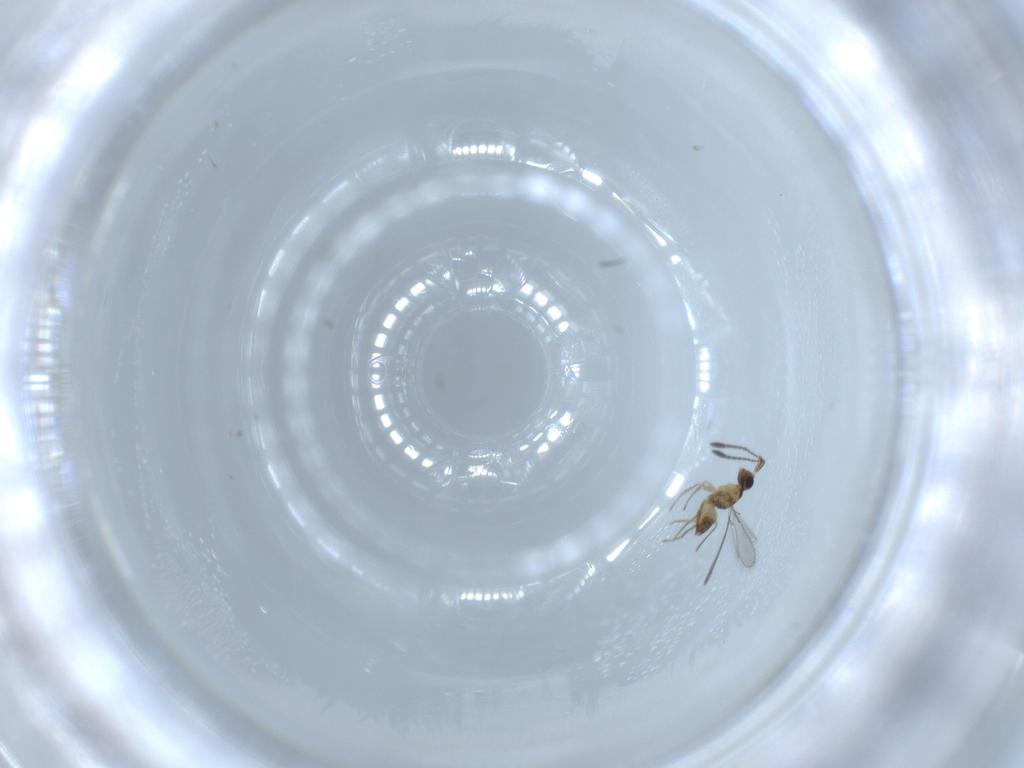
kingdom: Animalia
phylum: Arthropoda
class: Insecta
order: Hymenoptera
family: Mymaridae
